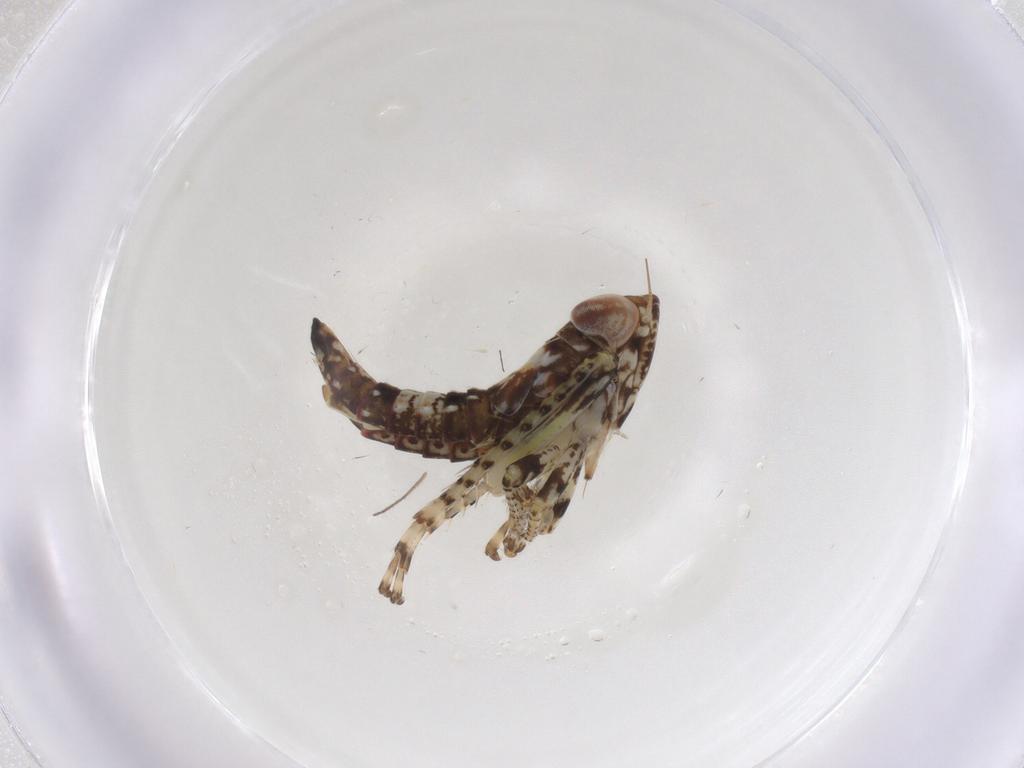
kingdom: Animalia
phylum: Arthropoda
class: Insecta
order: Hemiptera
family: Cicadellidae
